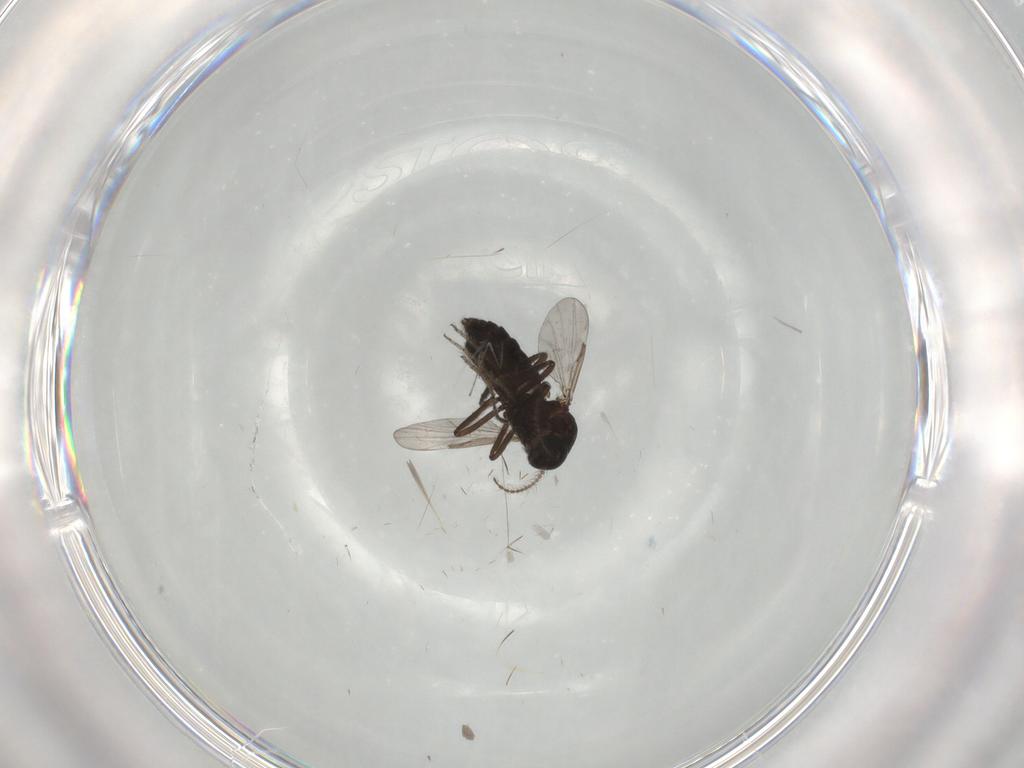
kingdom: Animalia
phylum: Arthropoda
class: Insecta
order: Diptera
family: Ceratopogonidae
